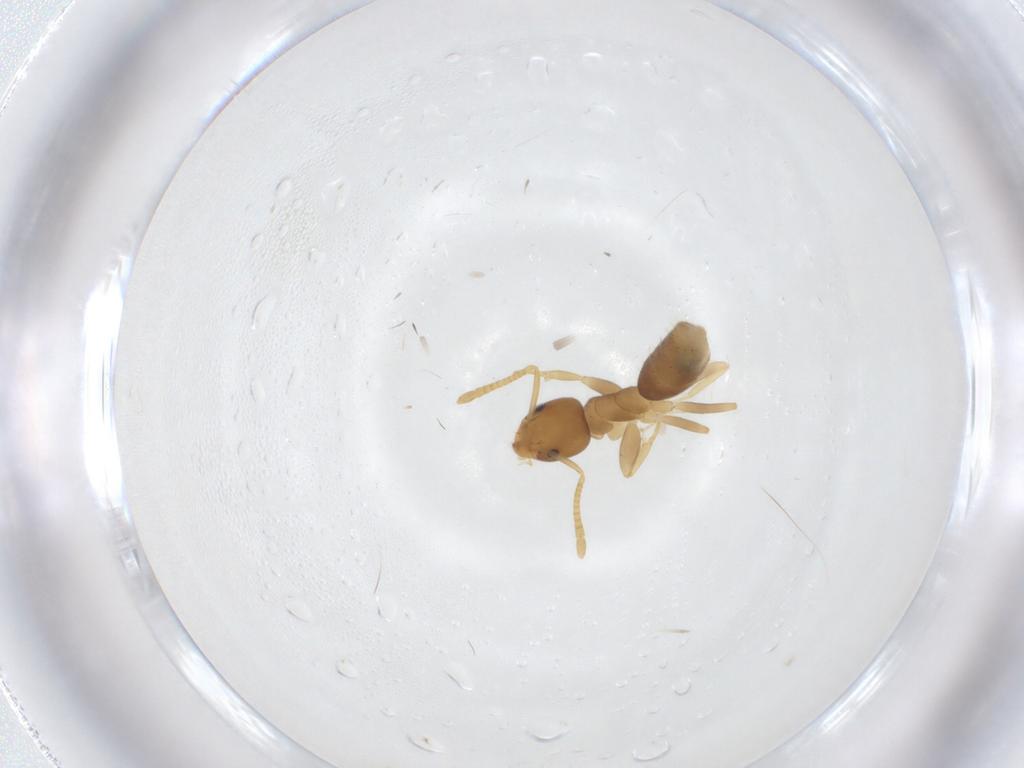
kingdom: Animalia
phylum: Arthropoda
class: Insecta
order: Hymenoptera
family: Formicidae
